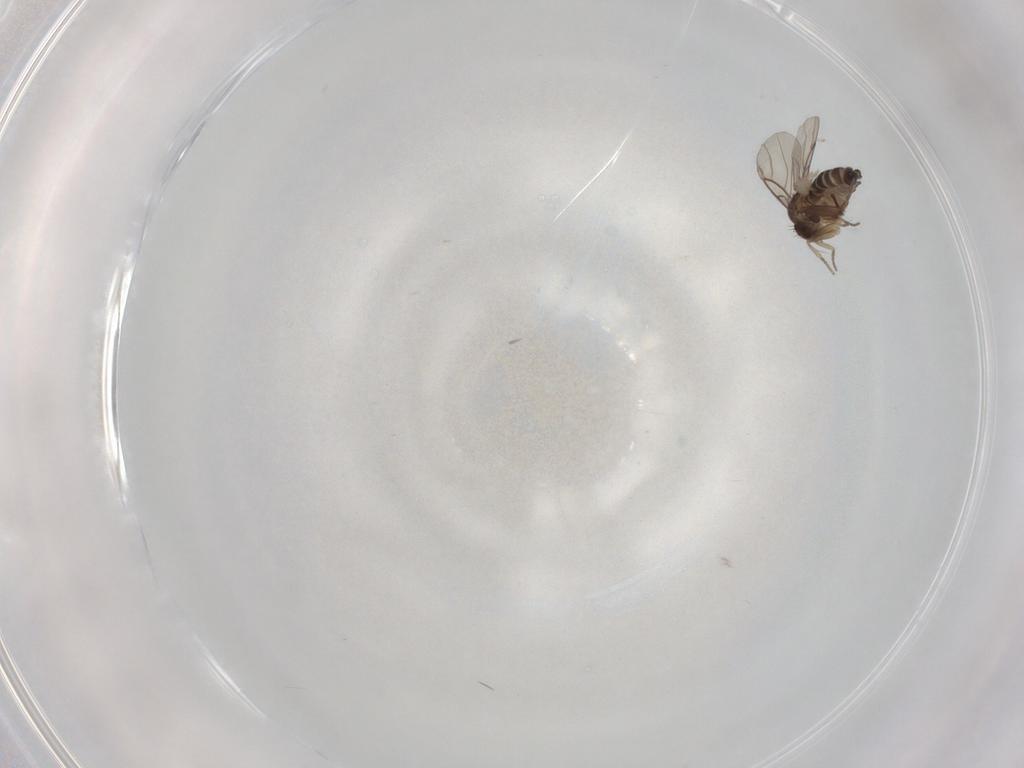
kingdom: Animalia
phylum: Arthropoda
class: Insecta
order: Diptera
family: Phoridae
